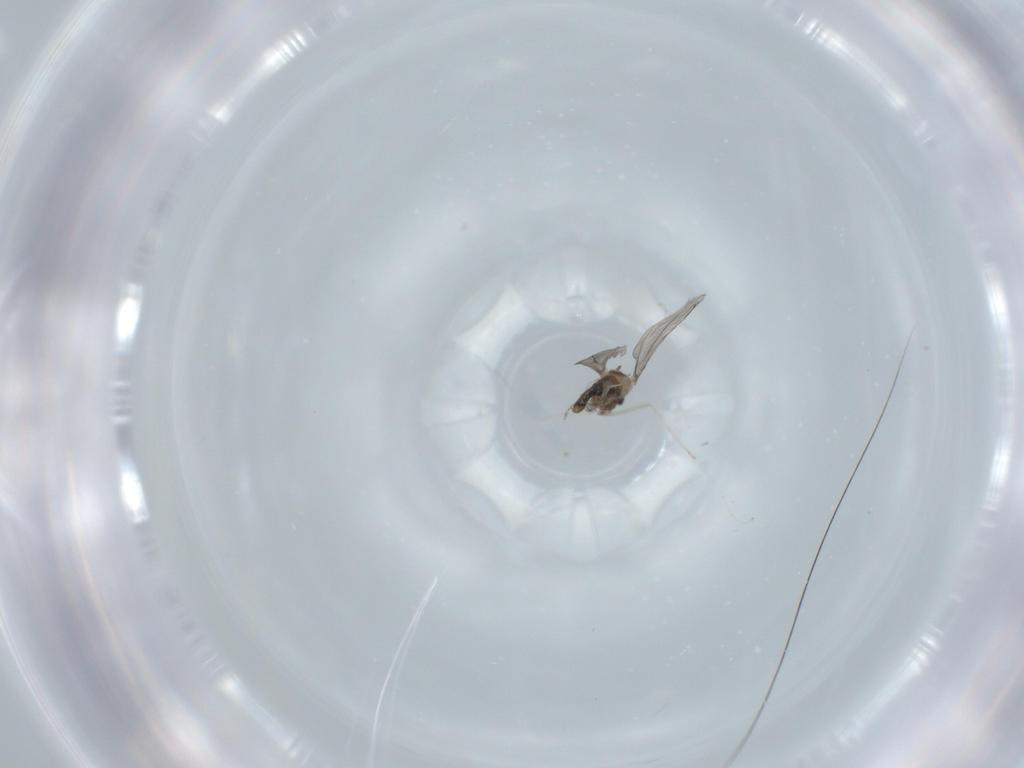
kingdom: Animalia
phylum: Arthropoda
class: Insecta
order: Diptera
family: Cecidomyiidae
